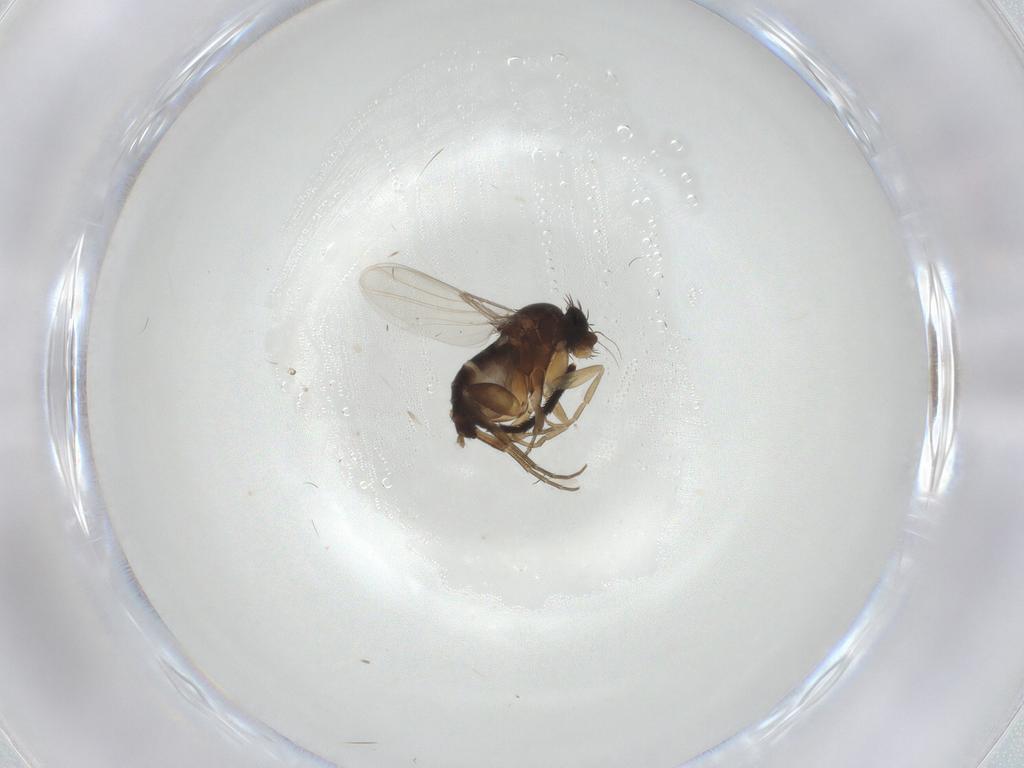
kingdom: Animalia
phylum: Arthropoda
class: Insecta
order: Diptera
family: Phoridae
